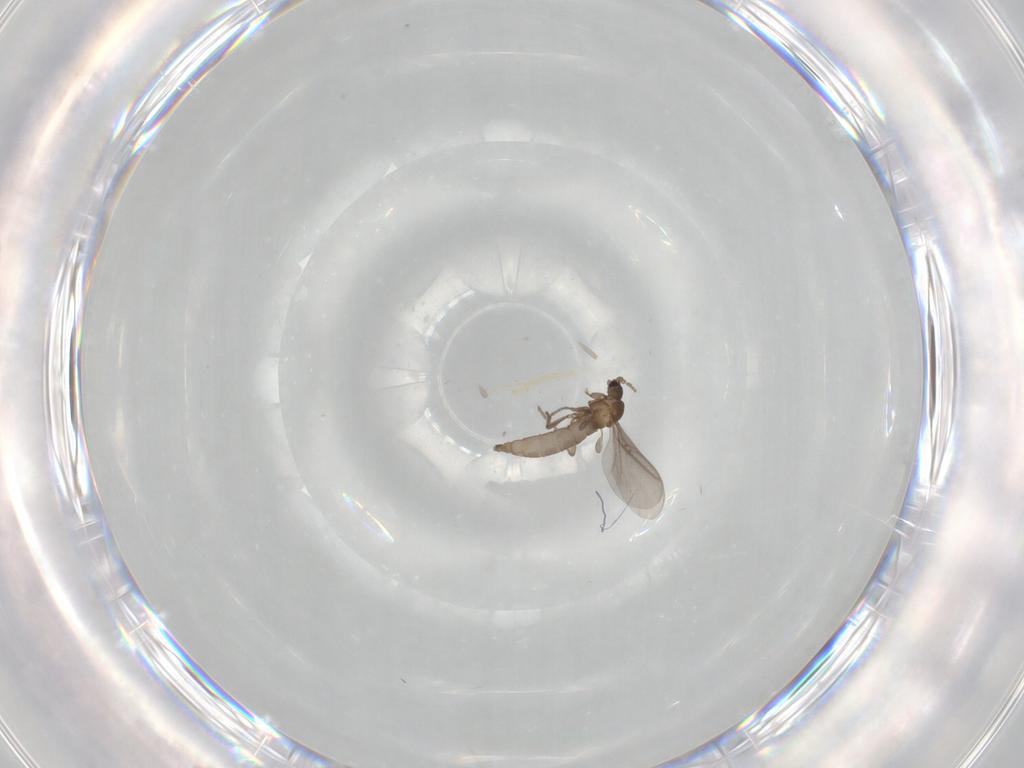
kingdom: Animalia
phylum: Arthropoda
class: Insecta
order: Diptera
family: Sciaridae
